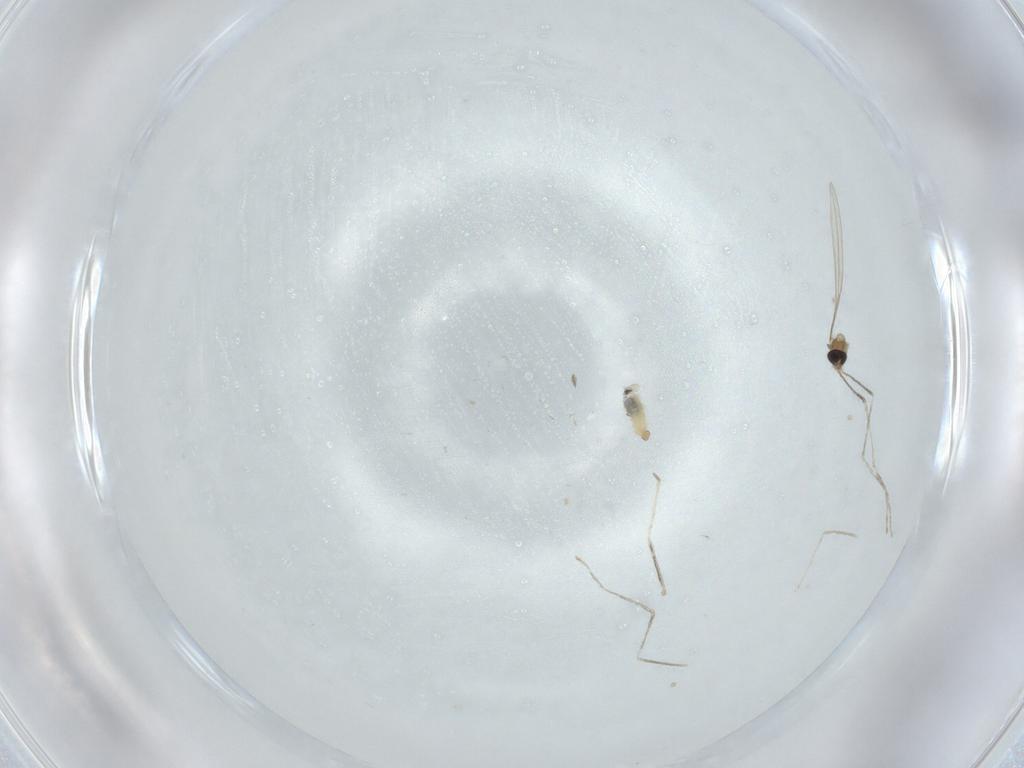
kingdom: Animalia
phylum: Arthropoda
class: Insecta
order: Diptera
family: Cecidomyiidae
